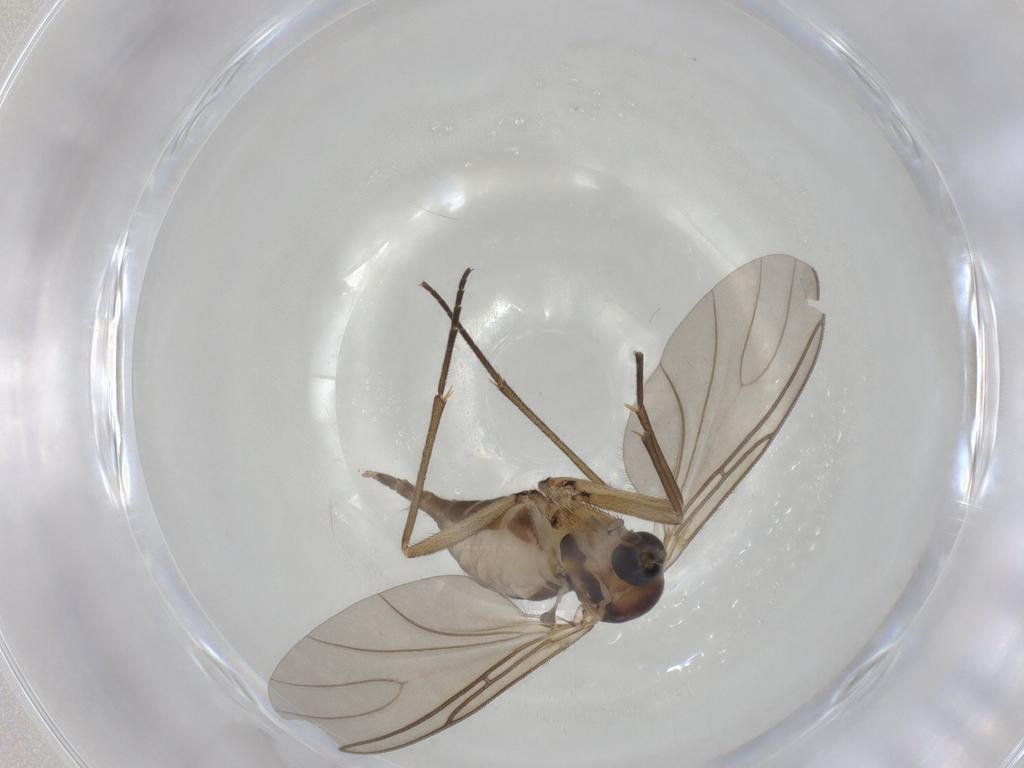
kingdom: Animalia
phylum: Arthropoda
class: Insecta
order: Diptera
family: Sciaridae
